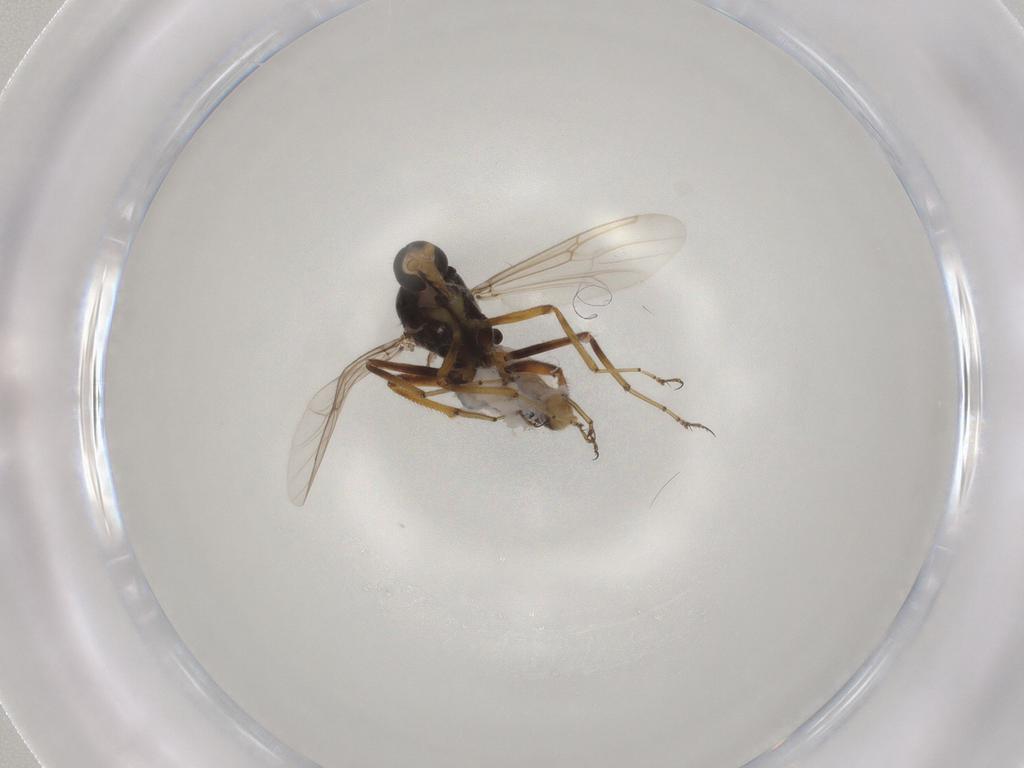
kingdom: Animalia
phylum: Arthropoda
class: Insecta
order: Diptera
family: Ceratopogonidae
